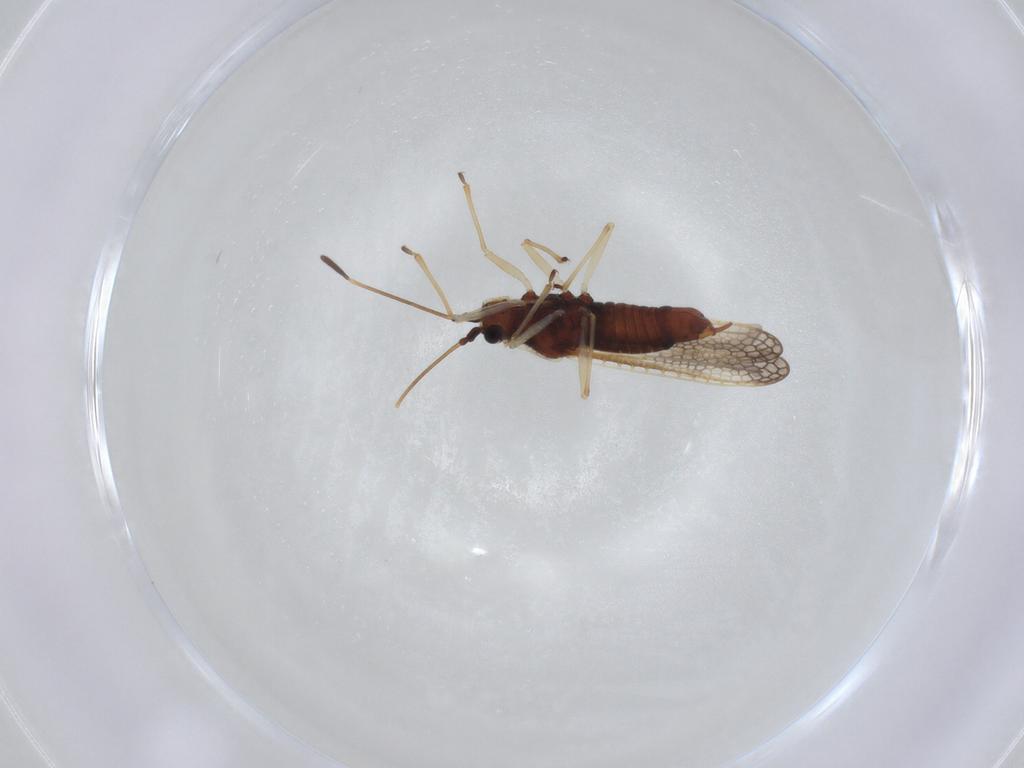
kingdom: Animalia
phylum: Arthropoda
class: Insecta
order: Hemiptera
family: Tingidae
